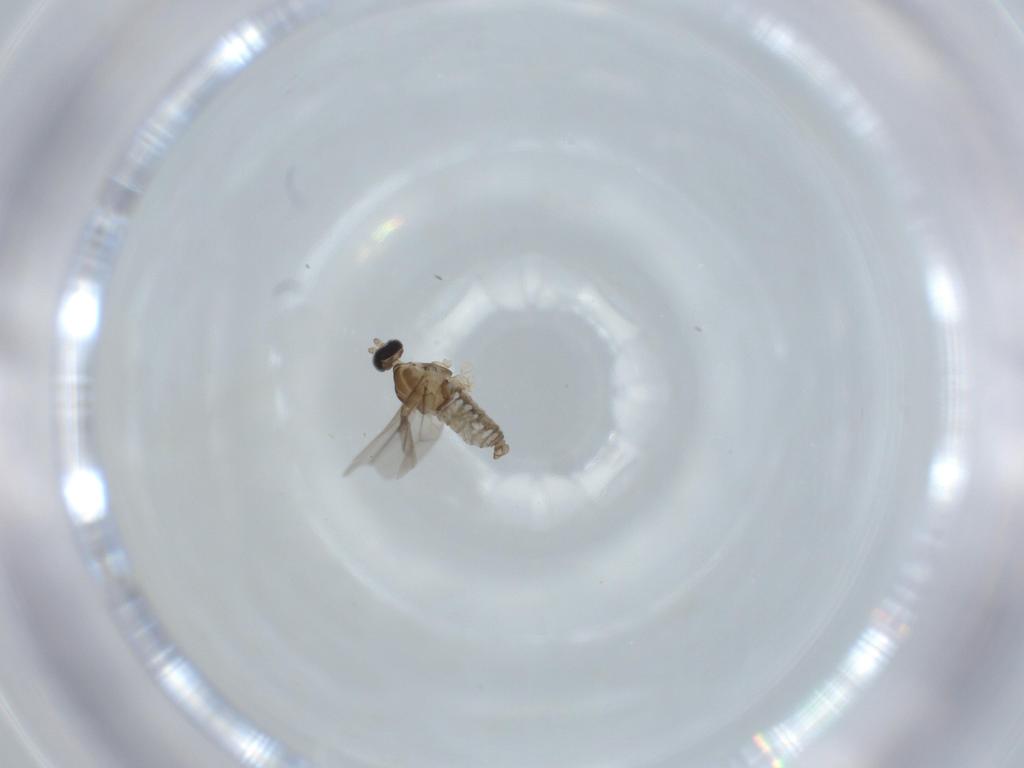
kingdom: Animalia
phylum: Arthropoda
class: Insecta
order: Diptera
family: Cecidomyiidae
